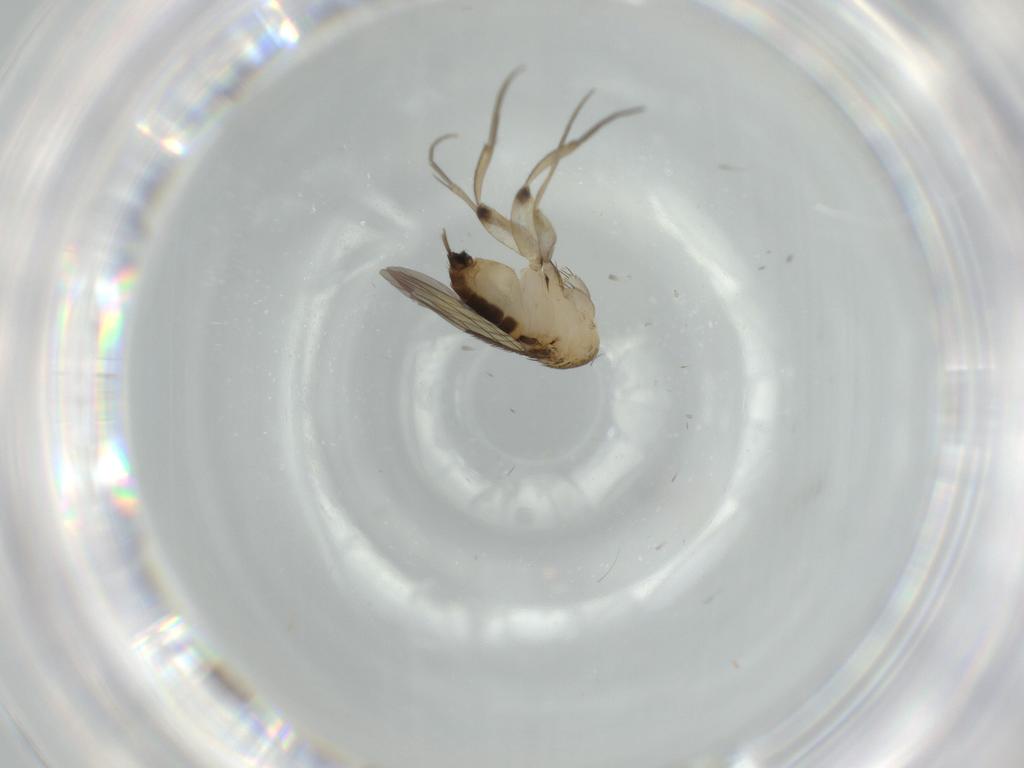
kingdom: Animalia
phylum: Arthropoda
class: Insecta
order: Diptera
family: Phoridae
